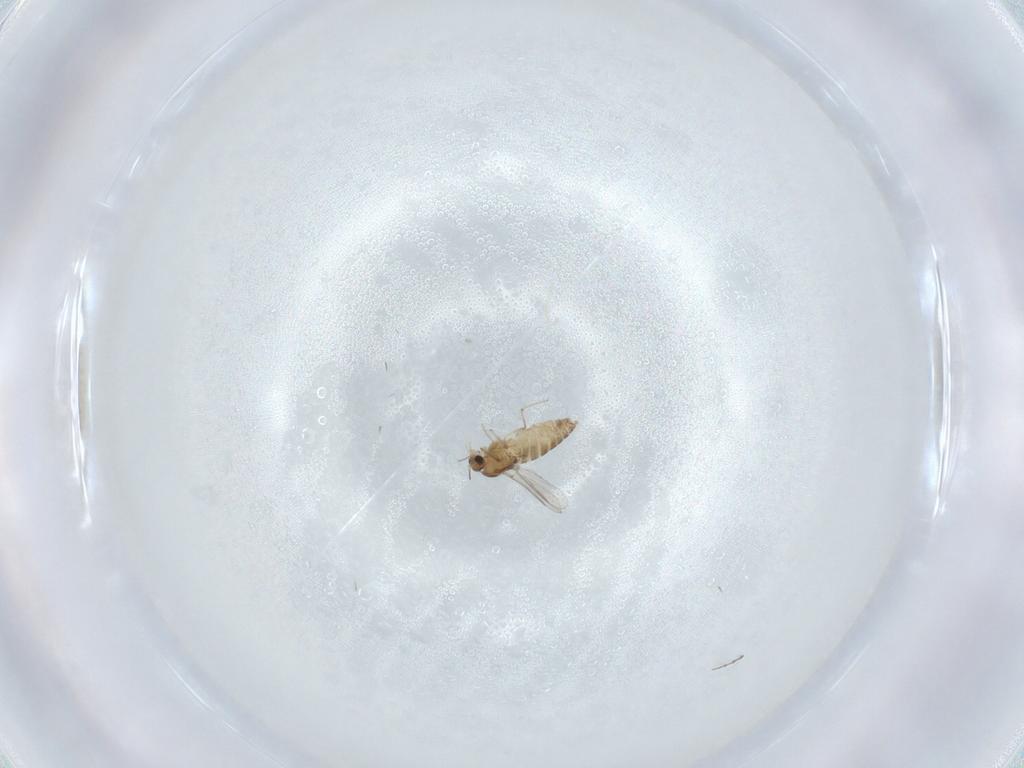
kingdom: Animalia
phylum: Arthropoda
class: Insecta
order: Diptera
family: Chironomidae
